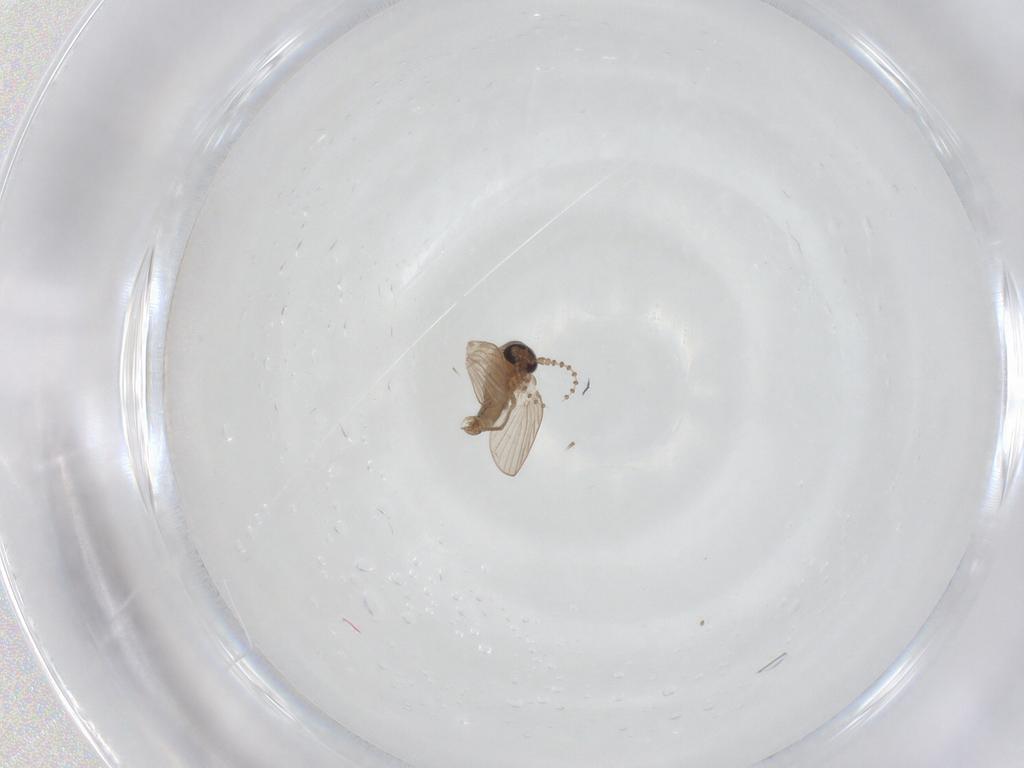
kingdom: Animalia
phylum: Arthropoda
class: Insecta
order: Diptera
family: Psychodidae
